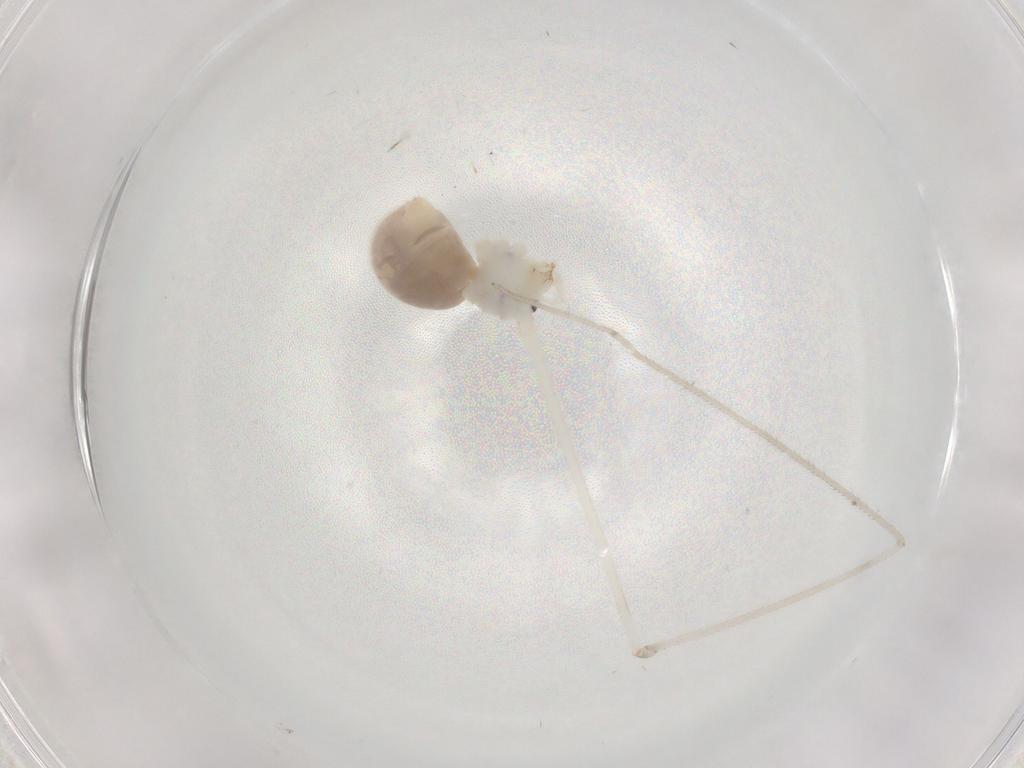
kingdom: Animalia
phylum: Arthropoda
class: Arachnida
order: Araneae
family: Pholcidae
